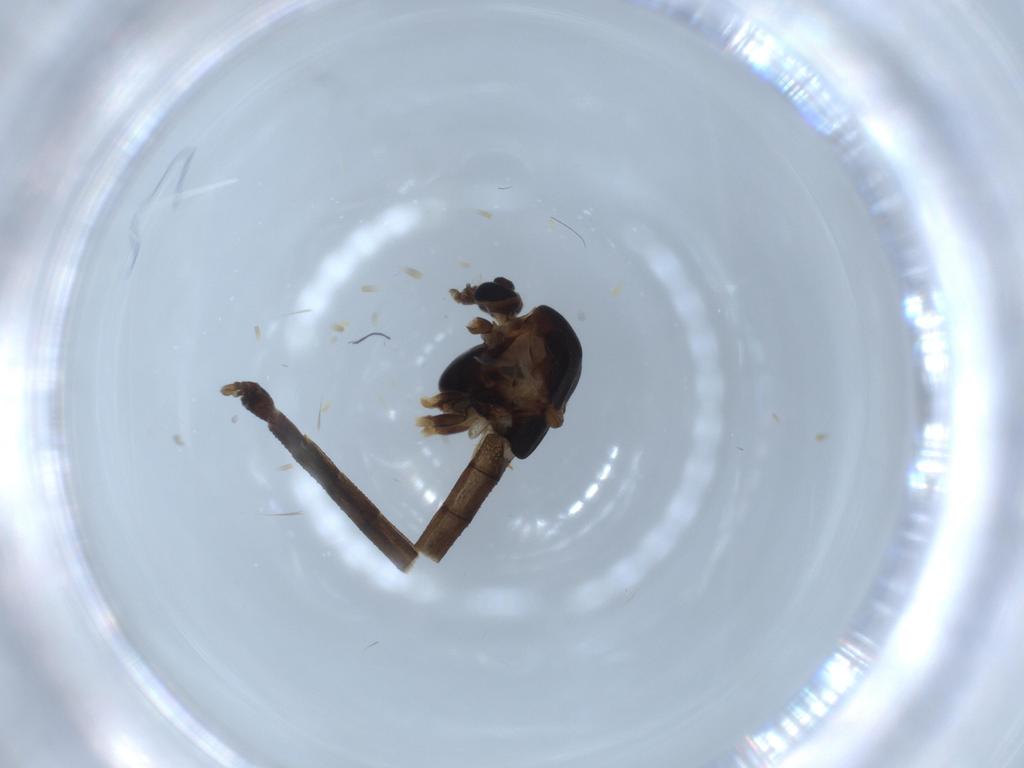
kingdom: Animalia
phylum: Arthropoda
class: Insecta
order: Diptera
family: Chironomidae
